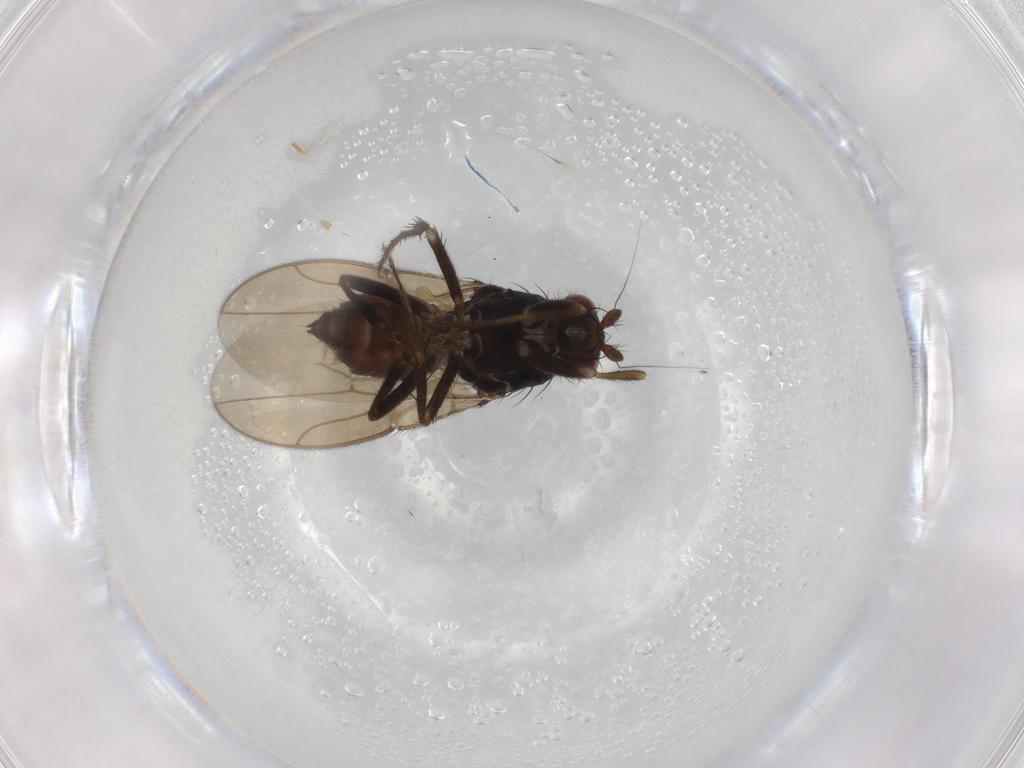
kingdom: Animalia
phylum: Arthropoda
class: Insecta
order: Diptera
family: Sphaeroceridae
